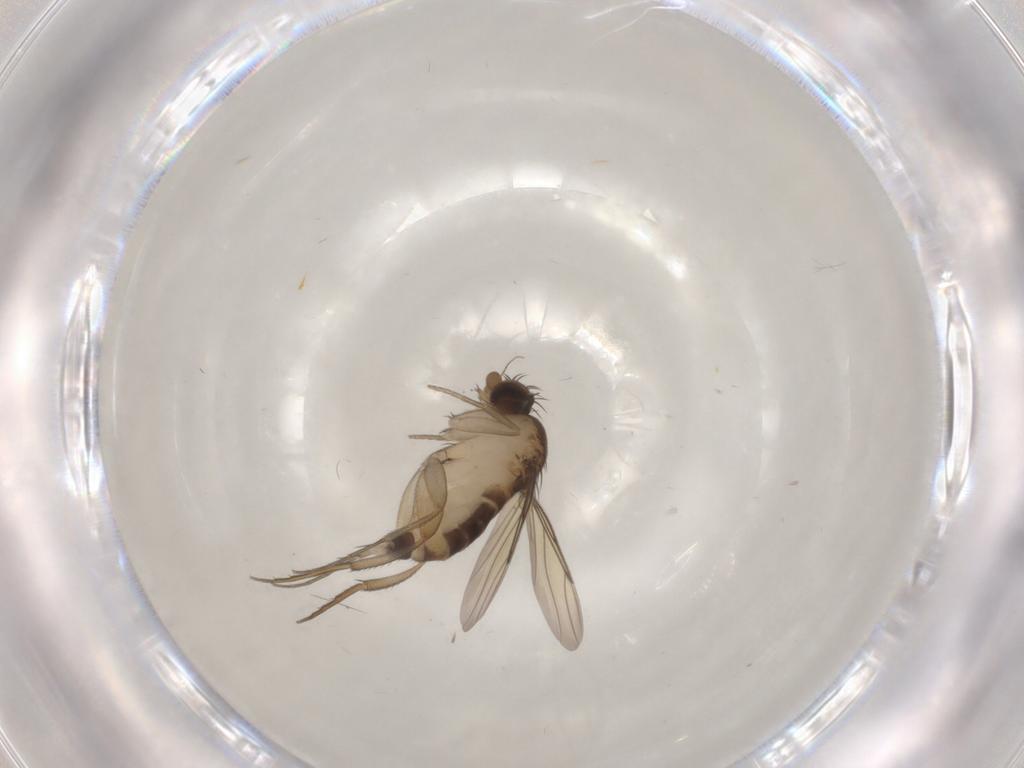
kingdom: Animalia
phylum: Arthropoda
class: Insecta
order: Diptera
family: Cecidomyiidae
